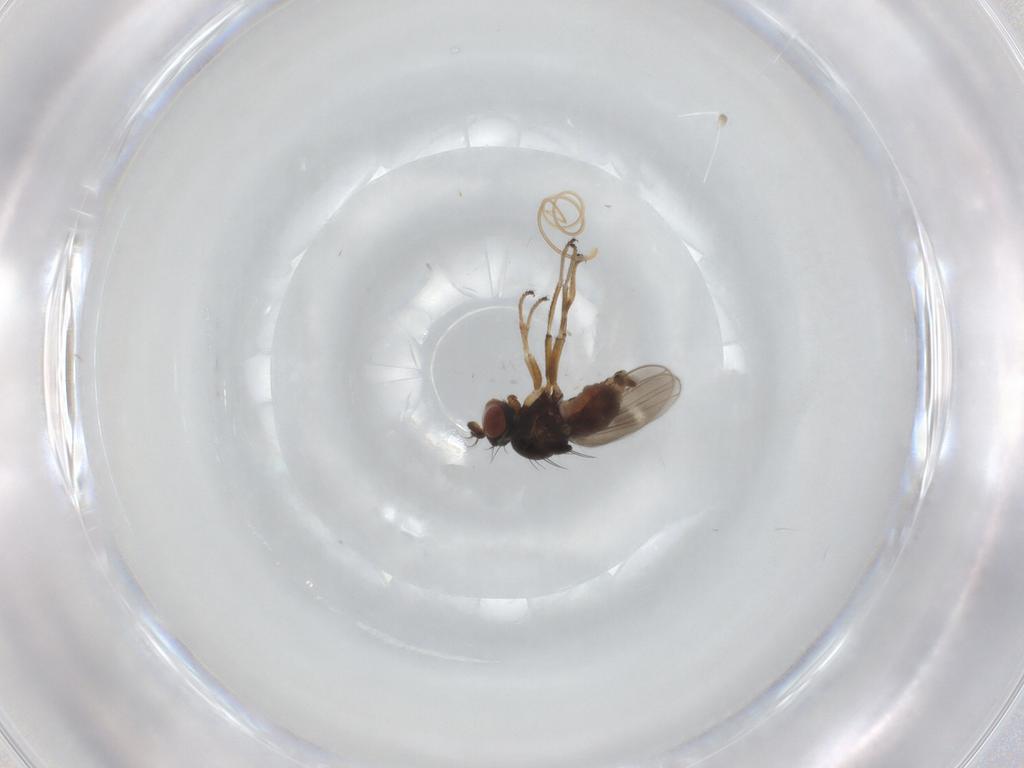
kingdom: Animalia
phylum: Arthropoda
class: Insecta
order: Diptera
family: Ephydridae
